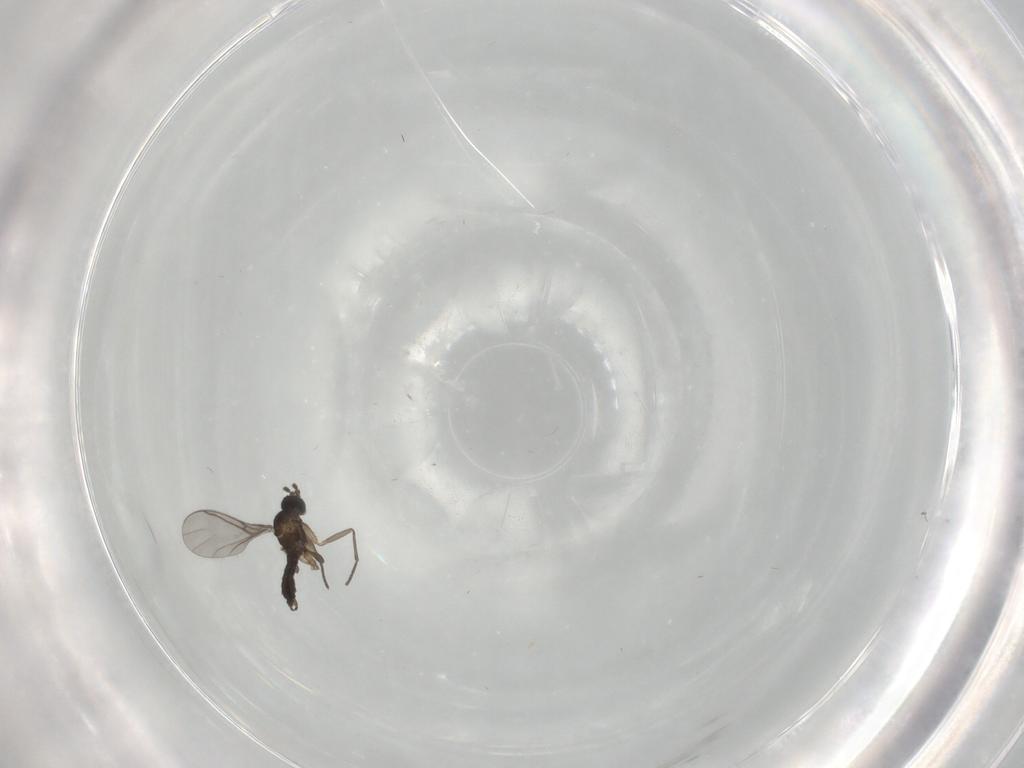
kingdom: Animalia
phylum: Arthropoda
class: Insecta
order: Diptera
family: Sciaridae
